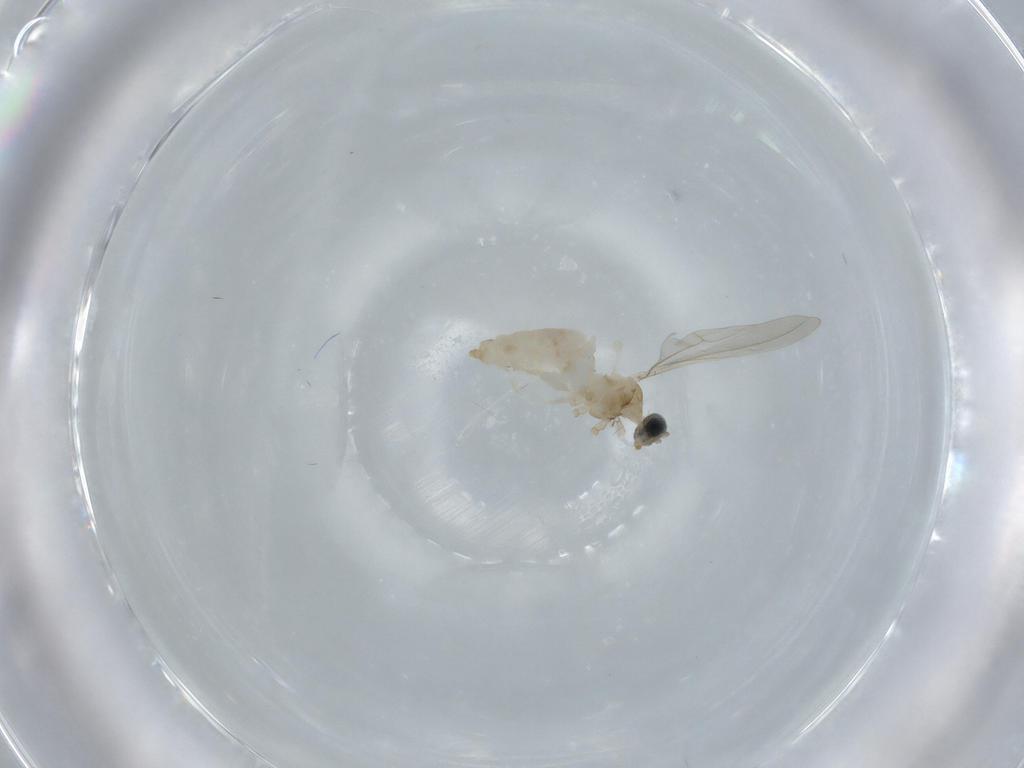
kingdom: Animalia
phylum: Arthropoda
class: Insecta
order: Diptera
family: Cecidomyiidae
